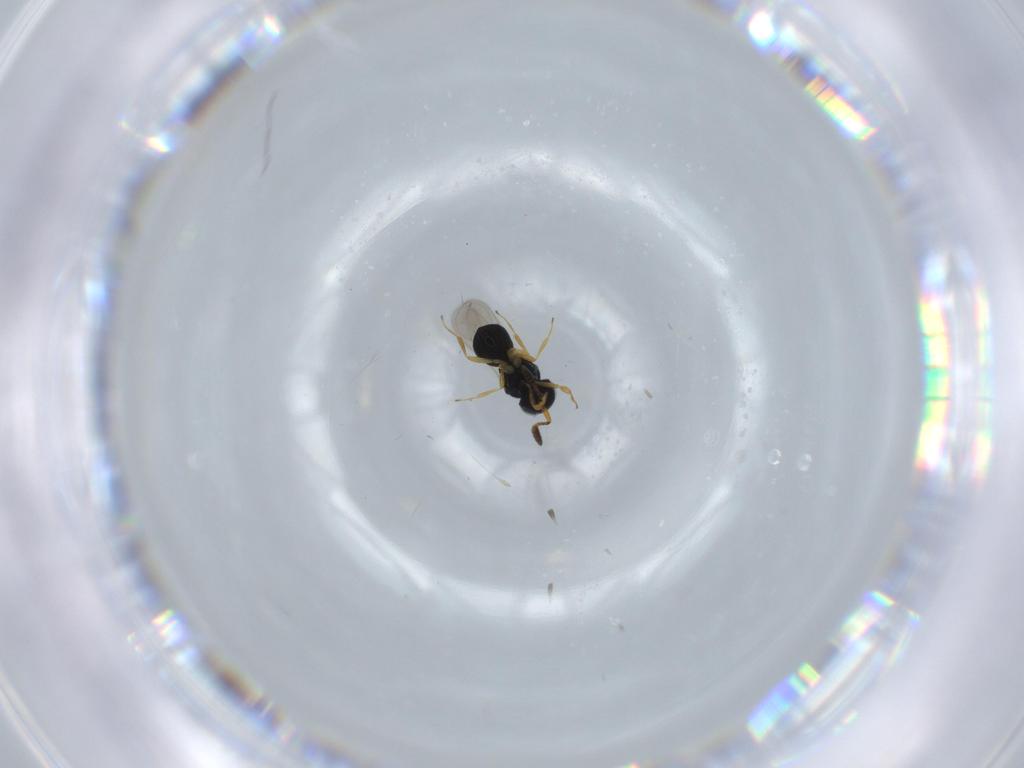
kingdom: Animalia
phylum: Arthropoda
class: Insecta
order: Hymenoptera
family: Scelionidae
